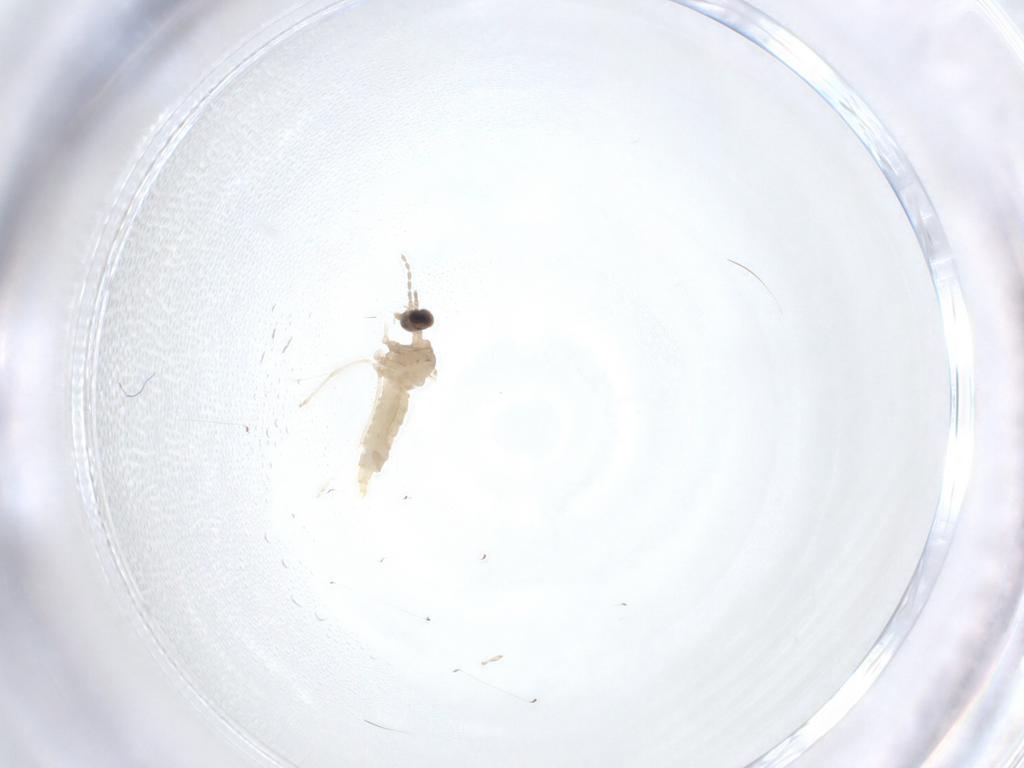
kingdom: Animalia
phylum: Arthropoda
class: Insecta
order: Diptera
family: Cecidomyiidae
